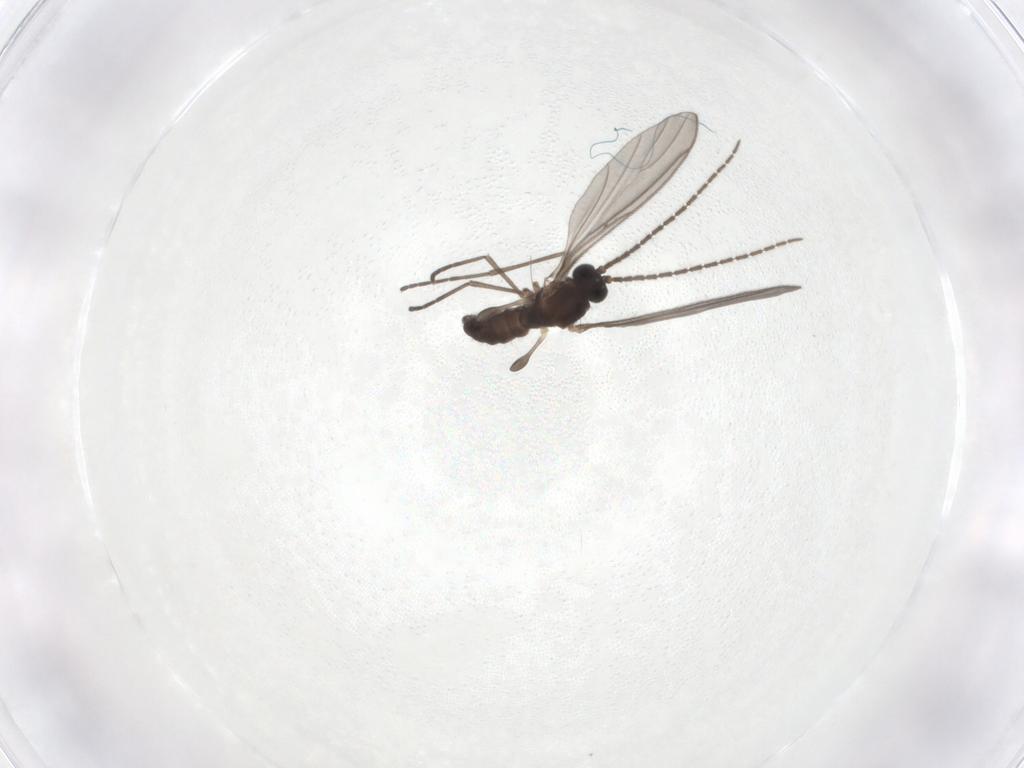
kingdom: Animalia
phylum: Arthropoda
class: Insecta
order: Diptera
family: Sciaridae
